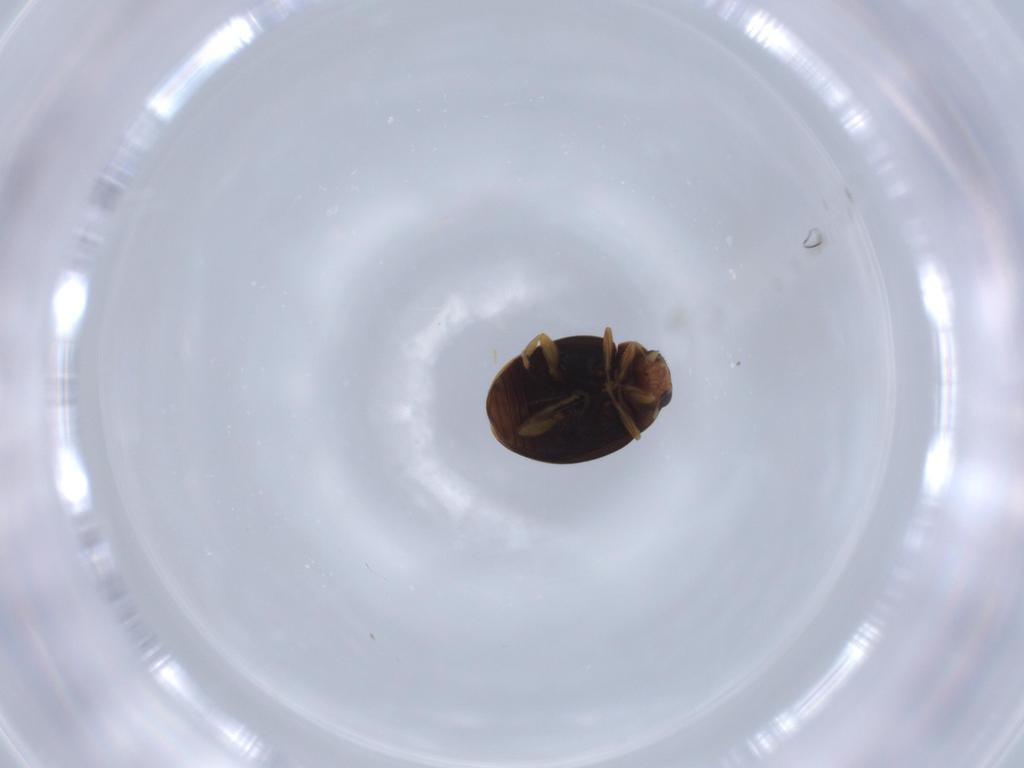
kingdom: Animalia
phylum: Arthropoda
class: Insecta
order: Coleoptera
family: Coccinellidae
